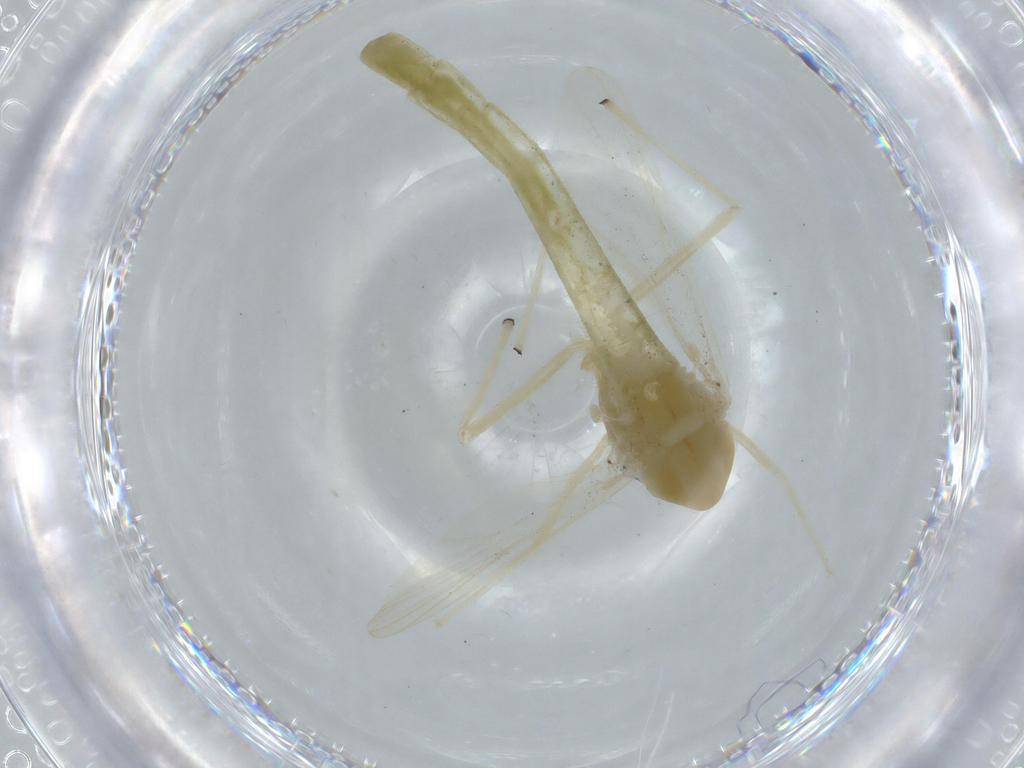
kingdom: Animalia
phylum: Arthropoda
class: Insecta
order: Diptera
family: Chironomidae
